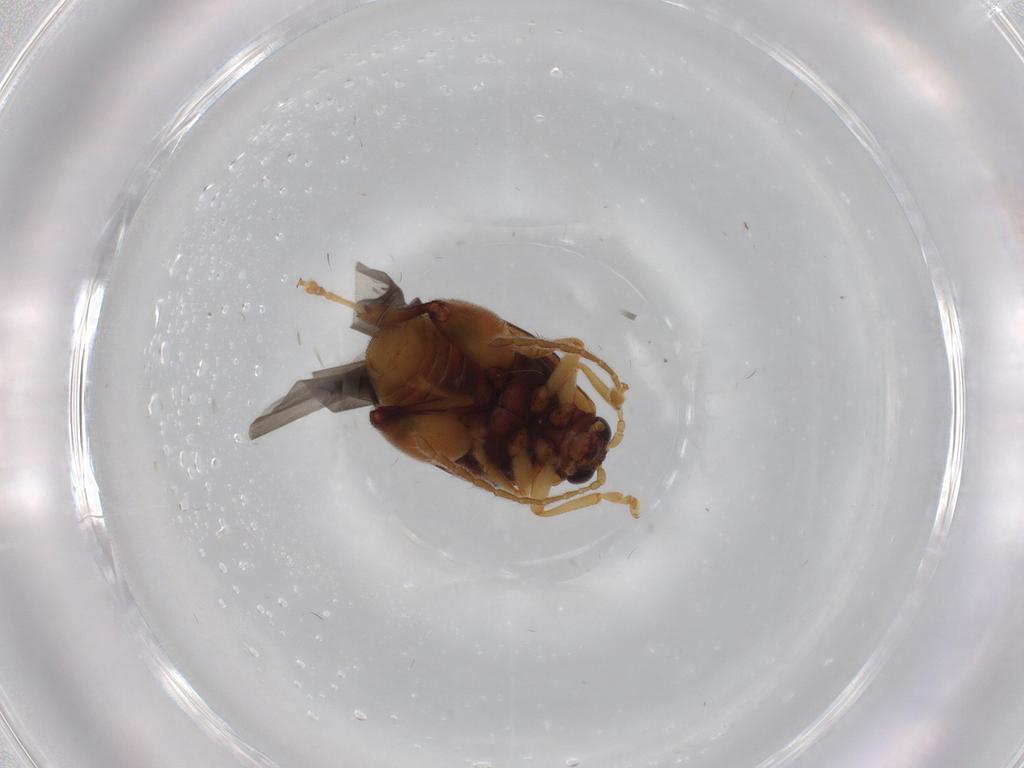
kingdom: Animalia
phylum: Arthropoda
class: Insecta
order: Coleoptera
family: Chrysomelidae
